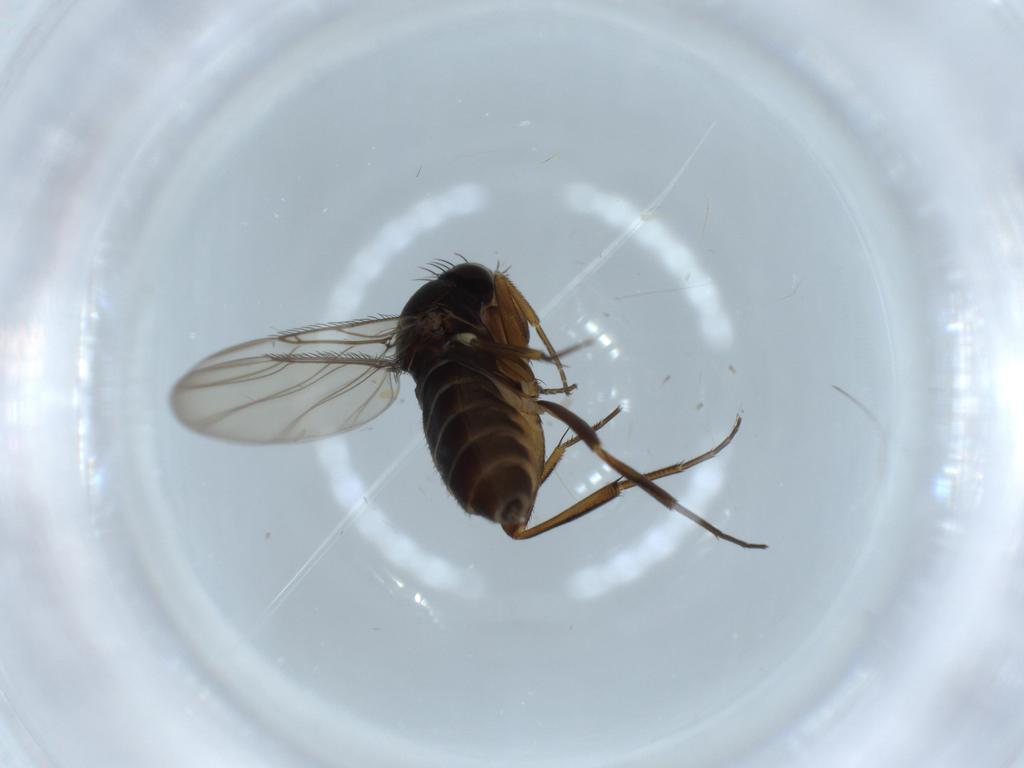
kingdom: Animalia
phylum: Arthropoda
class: Insecta
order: Diptera
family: Phoridae
